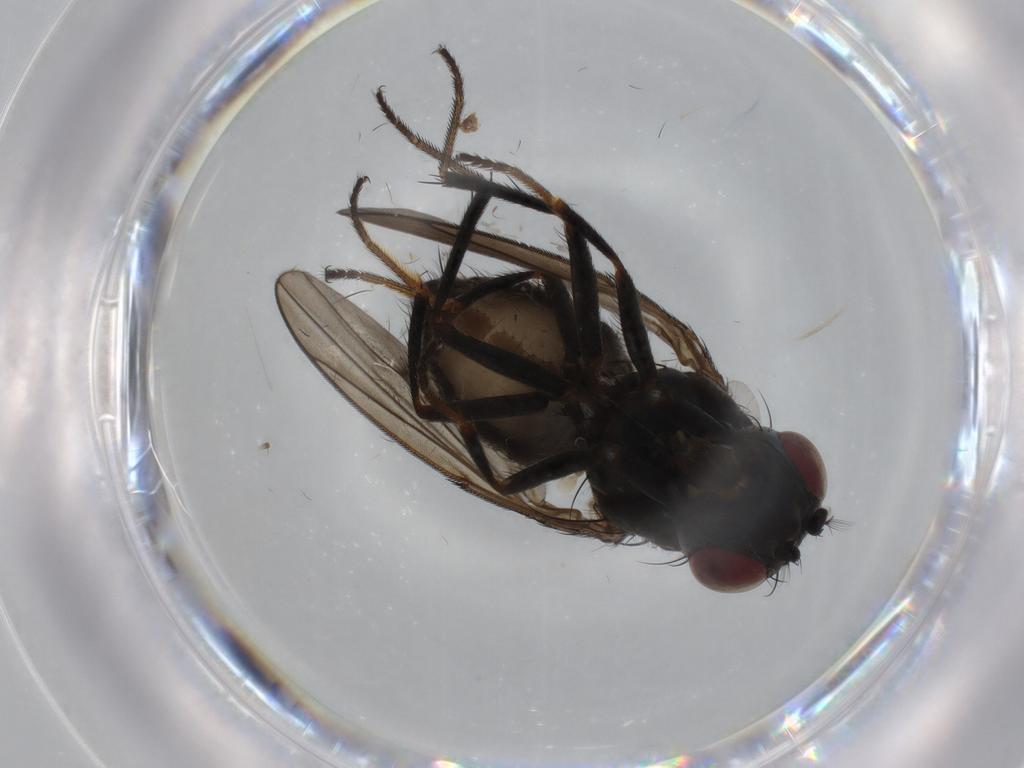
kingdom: Animalia
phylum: Arthropoda
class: Insecta
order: Diptera
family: Ephydridae
